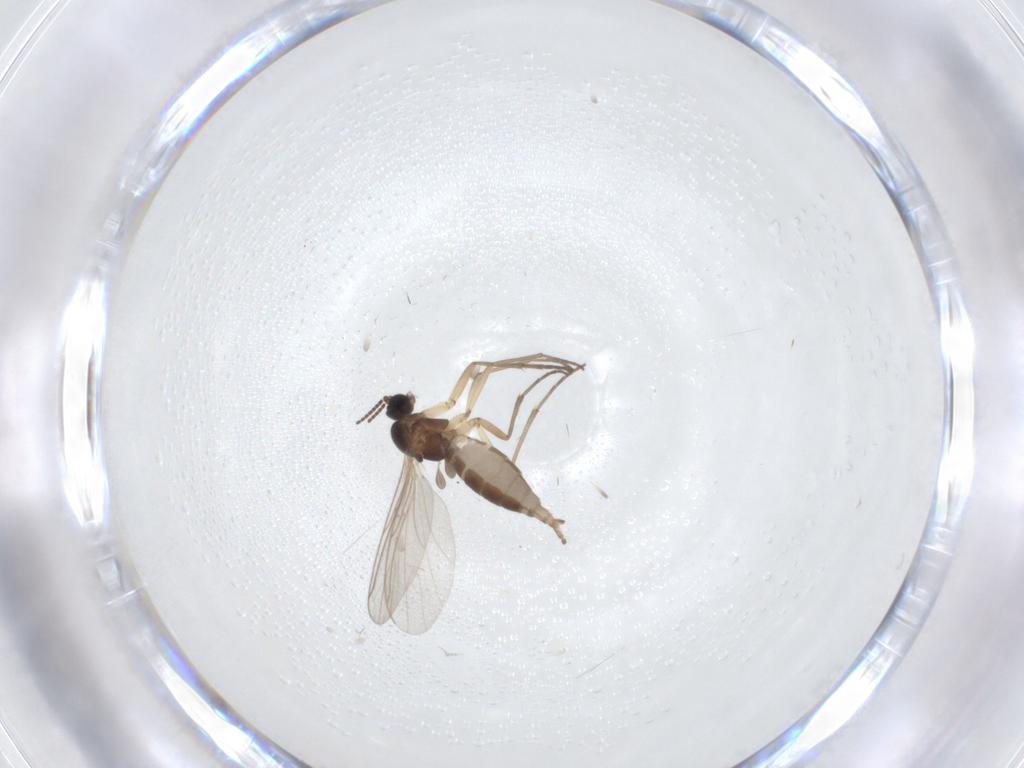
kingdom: Animalia
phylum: Arthropoda
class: Insecta
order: Diptera
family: Sciaridae
